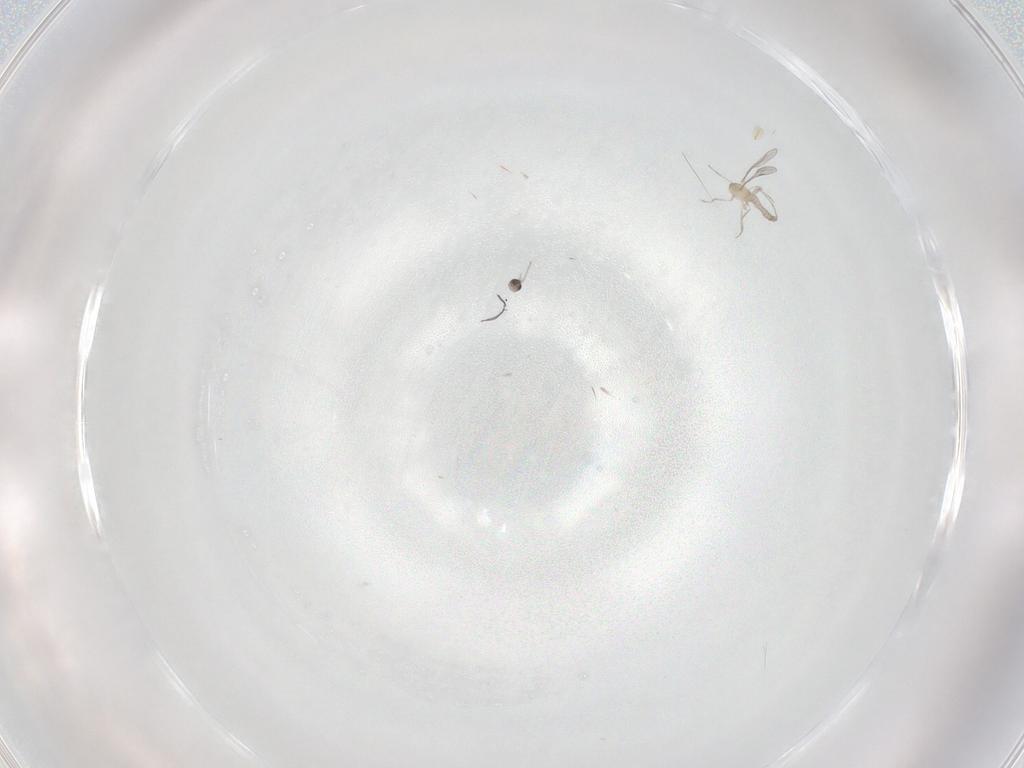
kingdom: Animalia
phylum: Arthropoda
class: Insecta
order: Diptera
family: Cecidomyiidae
